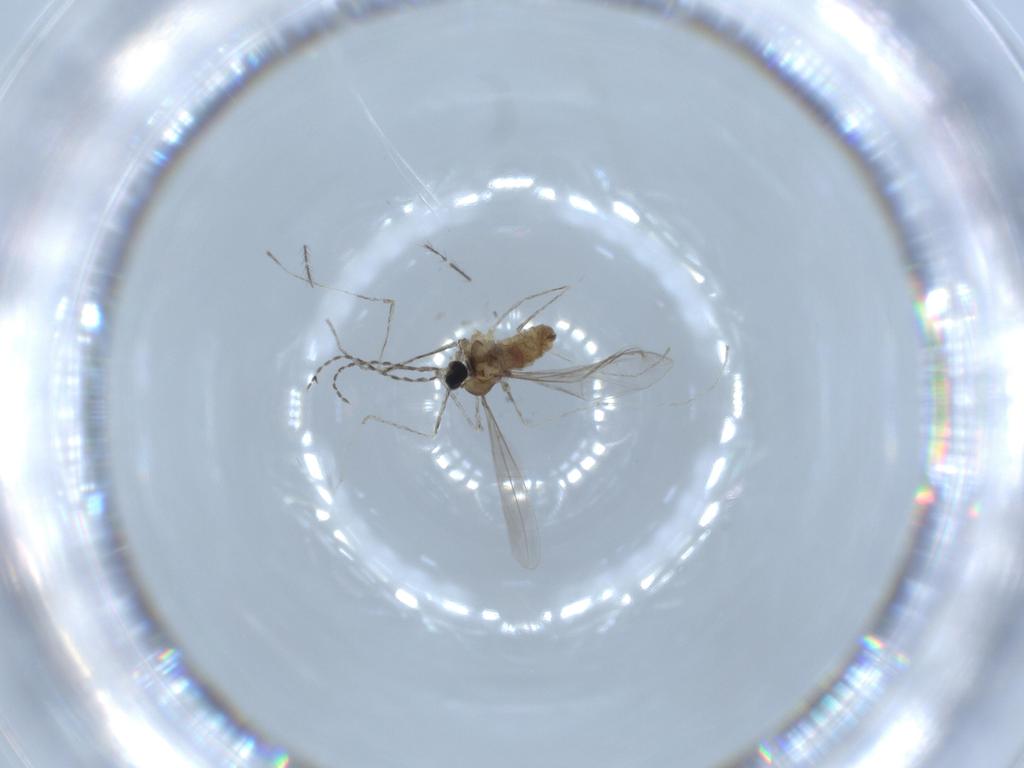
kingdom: Animalia
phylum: Arthropoda
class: Insecta
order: Diptera
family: Cecidomyiidae
